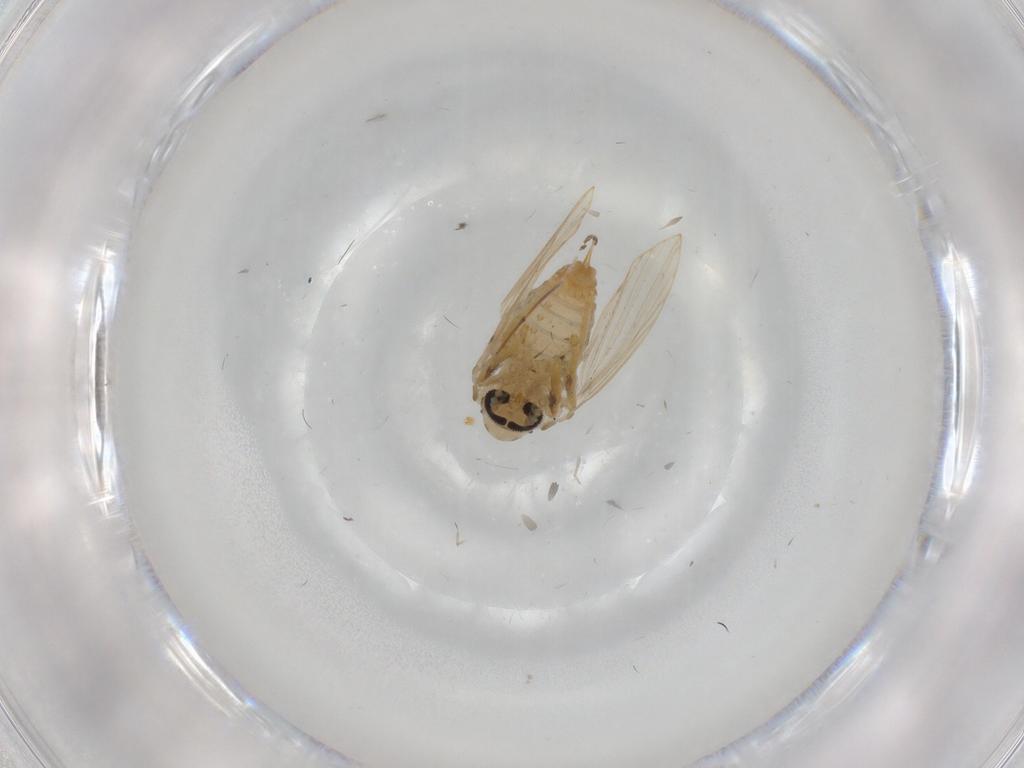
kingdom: Animalia
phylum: Arthropoda
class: Insecta
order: Diptera
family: Psychodidae
